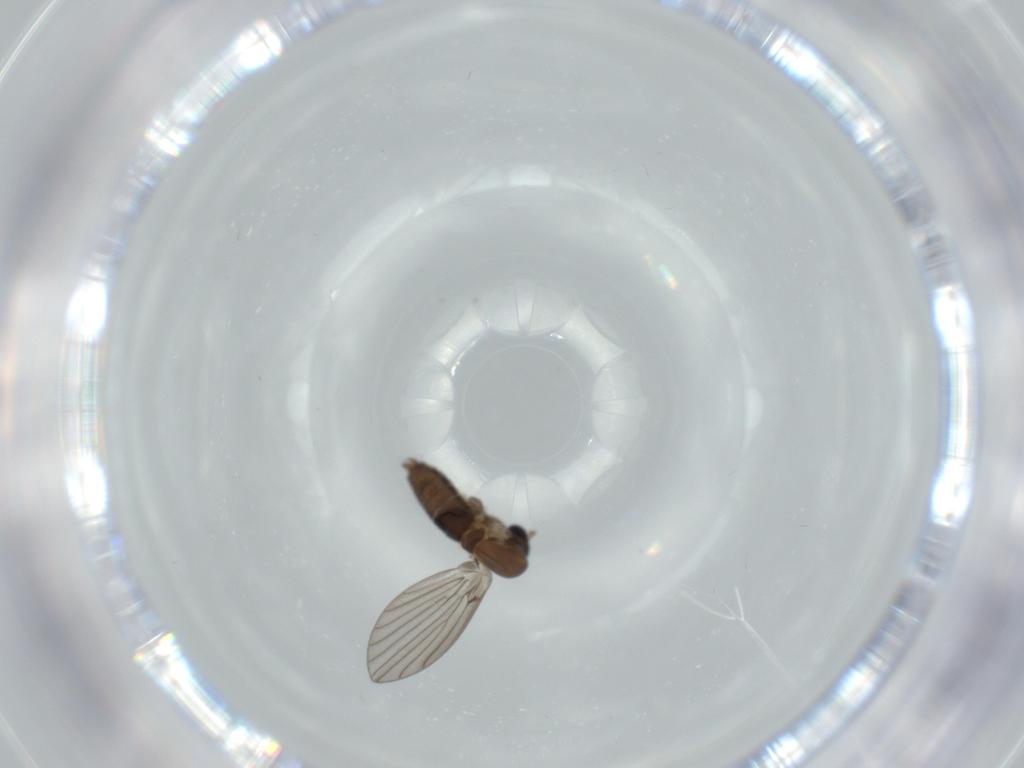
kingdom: Animalia
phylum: Arthropoda
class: Insecta
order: Diptera
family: Psychodidae
